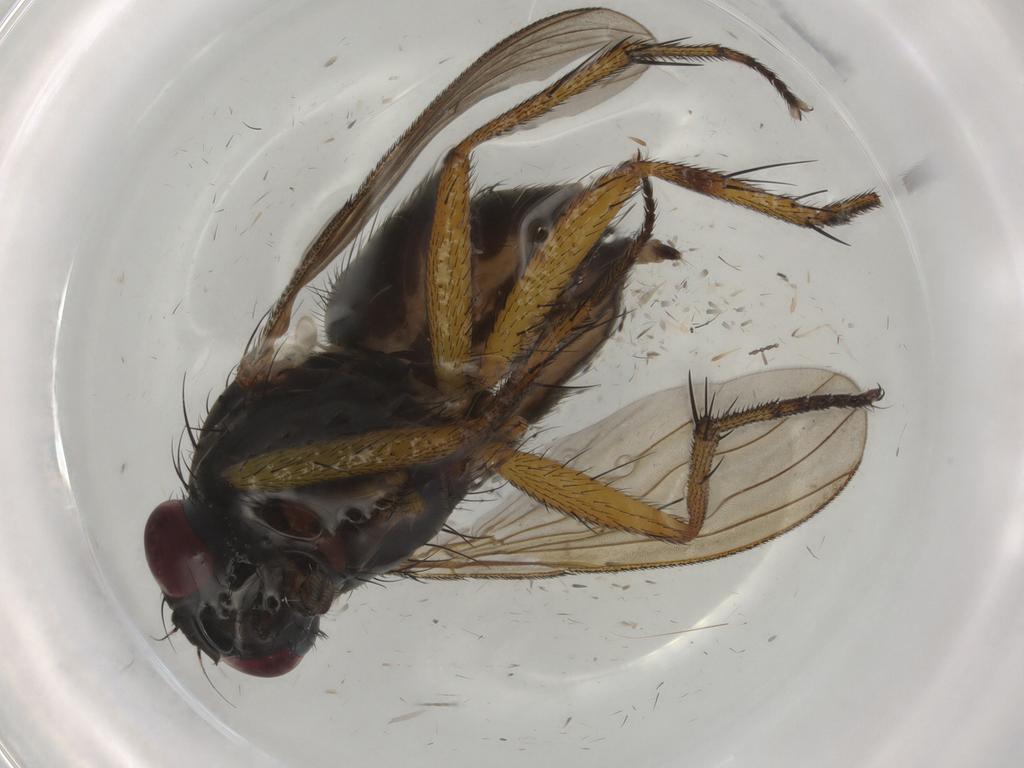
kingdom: Animalia
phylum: Arthropoda
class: Insecta
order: Diptera
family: Muscidae
